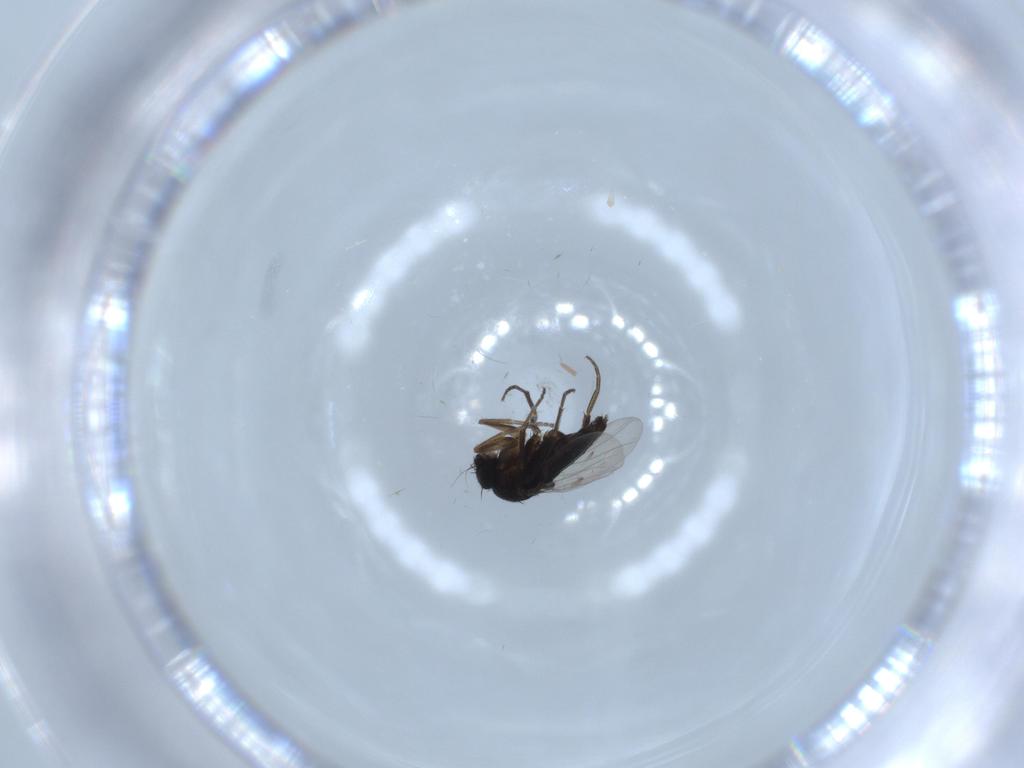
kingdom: Animalia
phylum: Arthropoda
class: Insecta
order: Diptera
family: Phoridae
